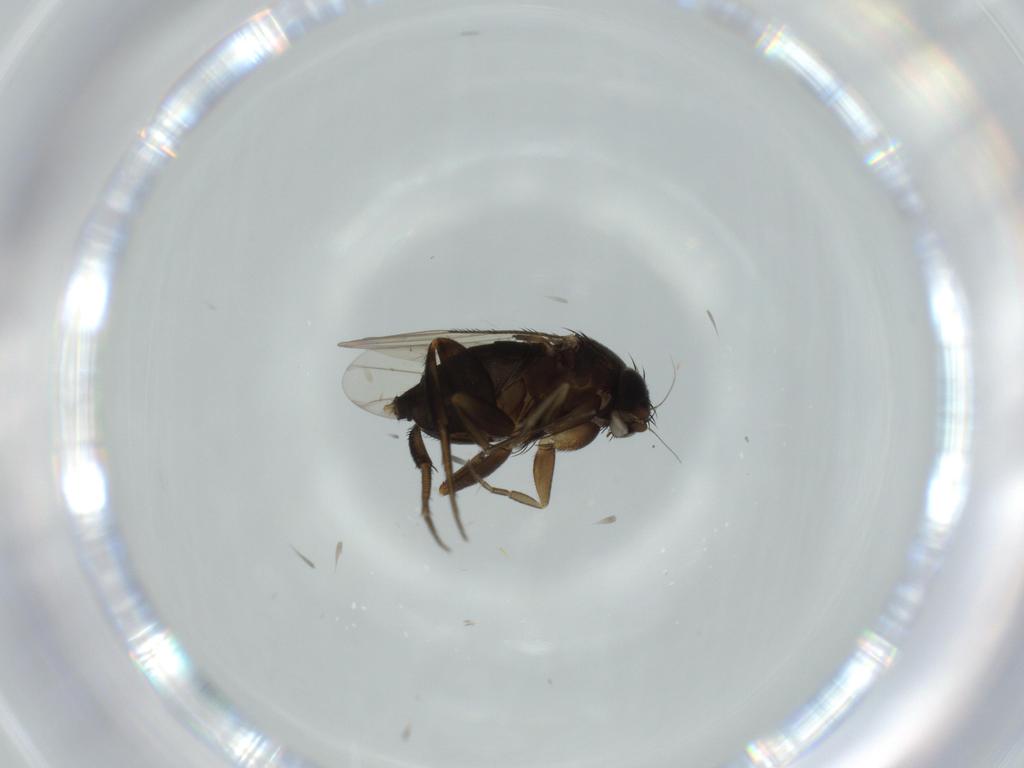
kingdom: Animalia
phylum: Arthropoda
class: Insecta
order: Diptera
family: Phoridae
